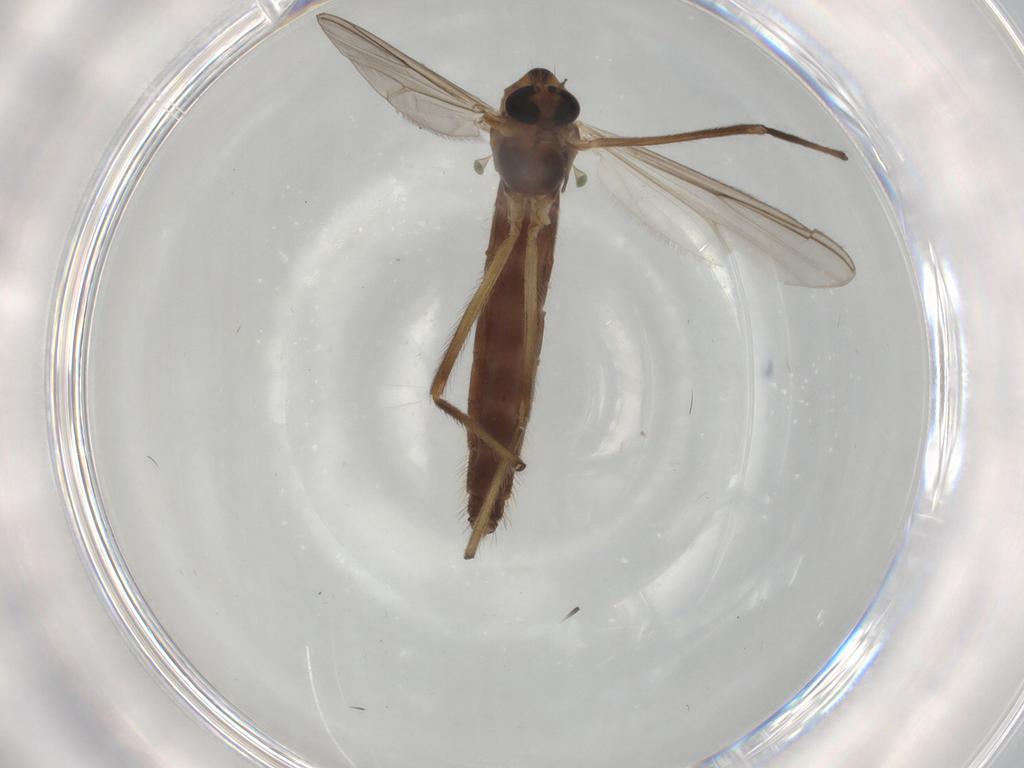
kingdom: Animalia
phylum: Arthropoda
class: Insecta
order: Diptera
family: Chironomidae
